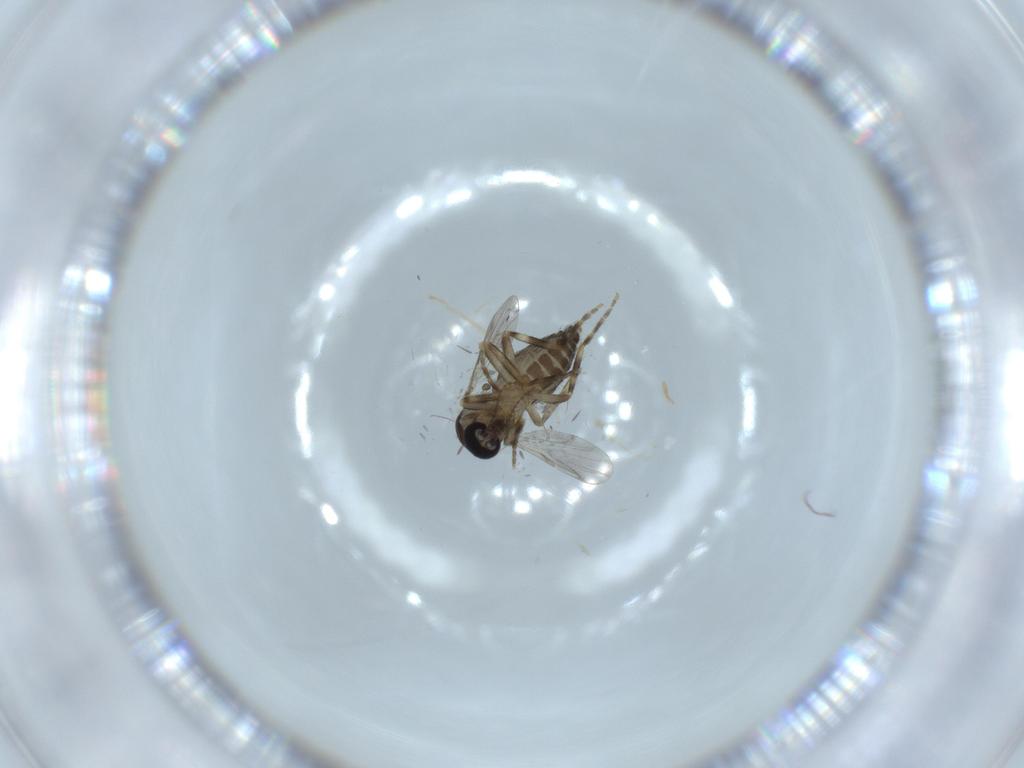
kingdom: Animalia
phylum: Arthropoda
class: Insecta
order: Diptera
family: Ceratopogonidae
